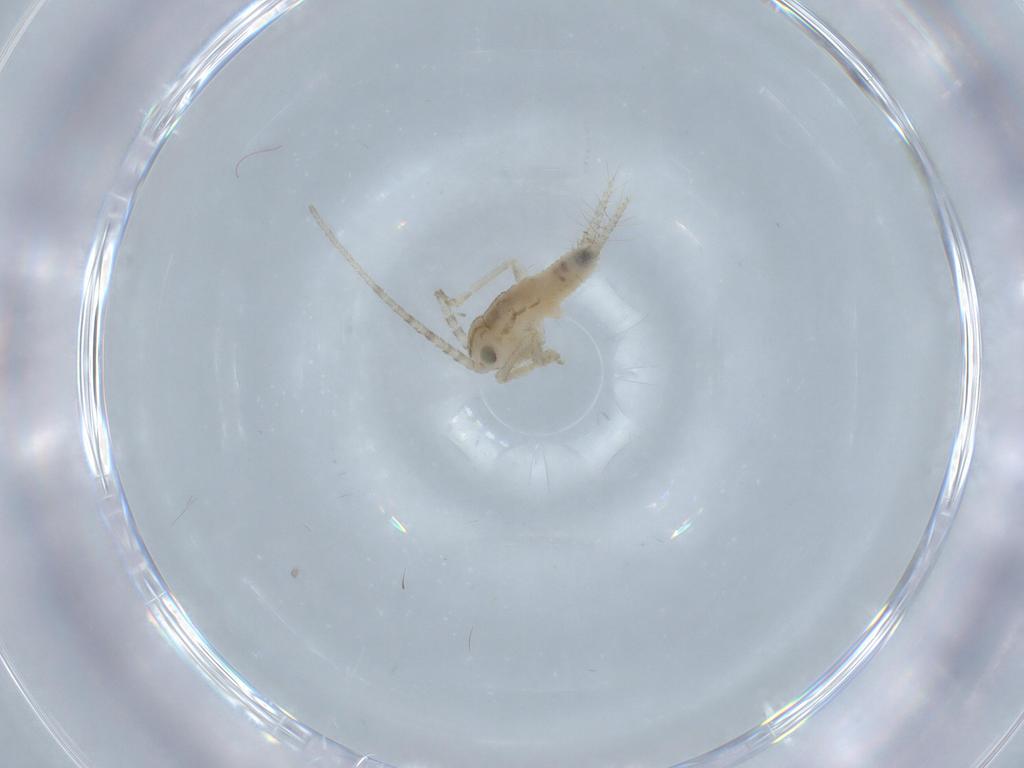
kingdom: Animalia
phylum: Arthropoda
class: Insecta
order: Orthoptera
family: Trigonidiidae
